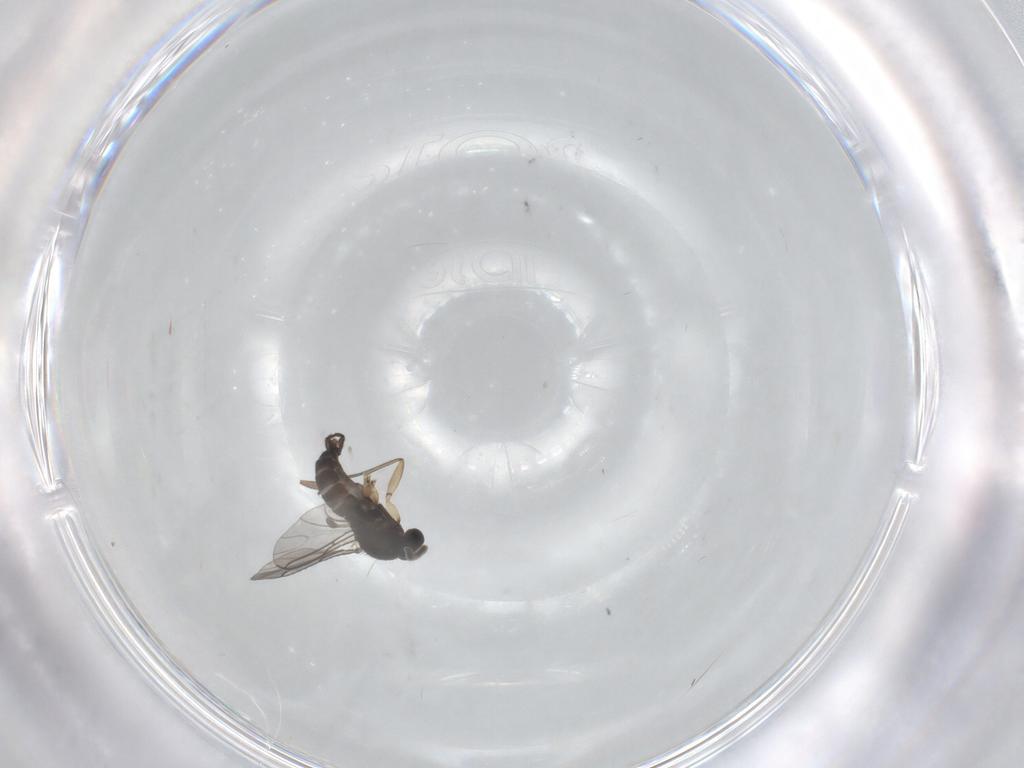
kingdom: Animalia
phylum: Arthropoda
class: Insecta
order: Diptera
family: Sciaridae
